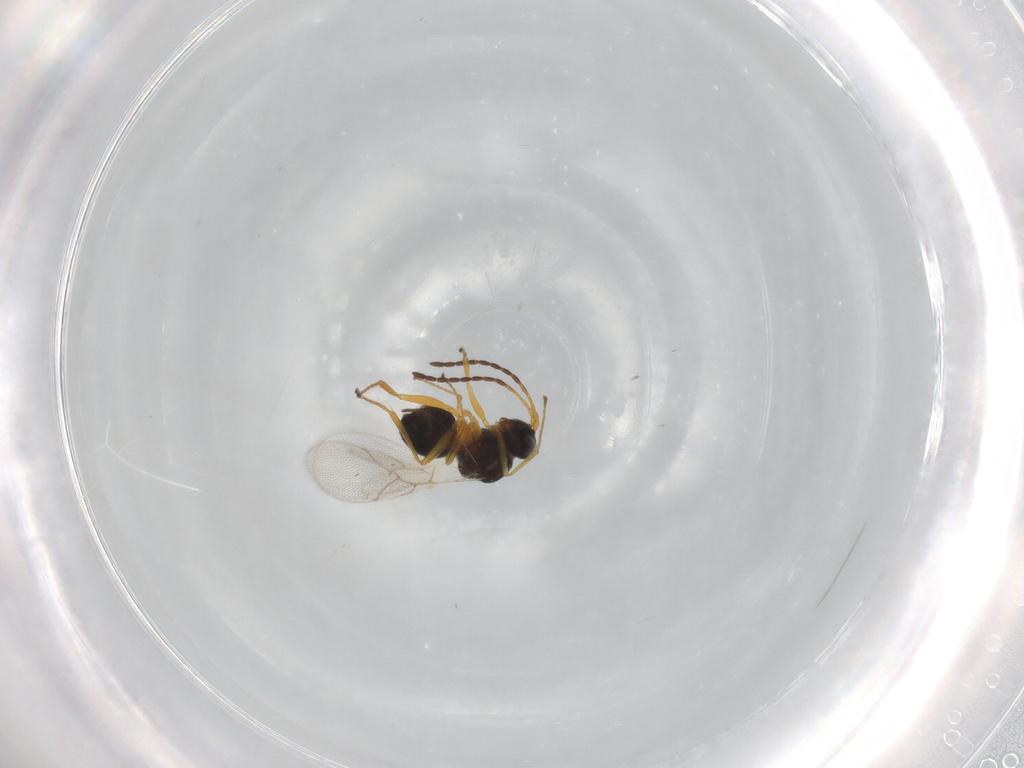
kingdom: Animalia
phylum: Arthropoda
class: Insecta
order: Hymenoptera
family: Figitidae
